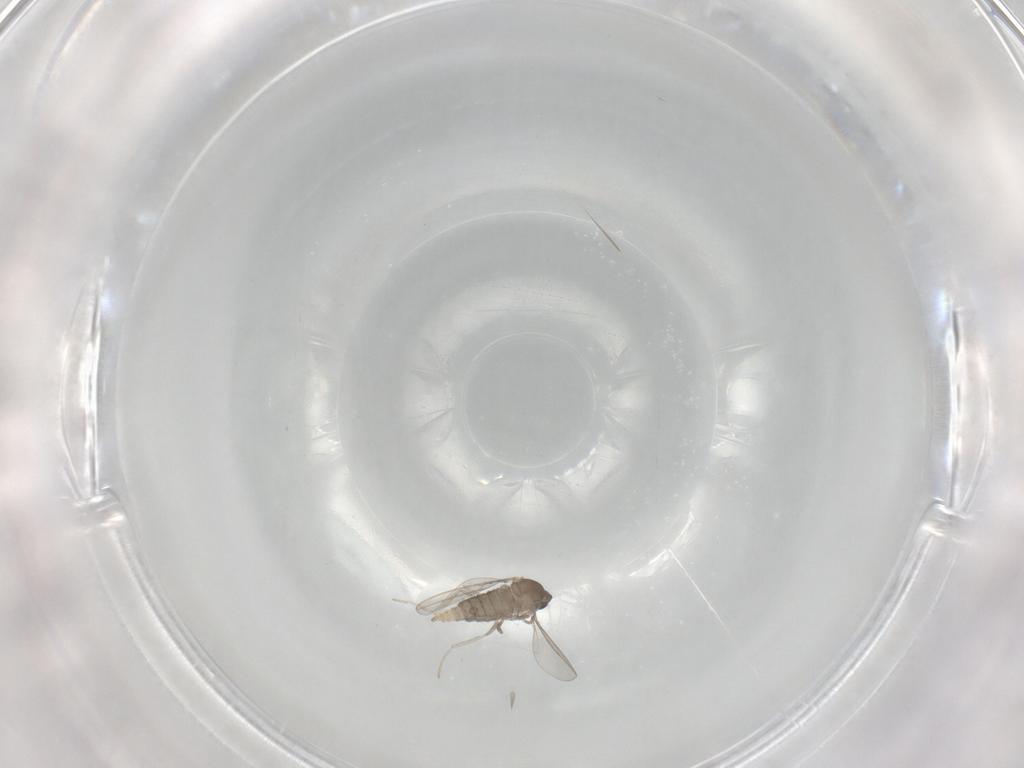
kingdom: Animalia
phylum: Arthropoda
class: Insecta
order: Diptera
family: Cecidomyiidae
